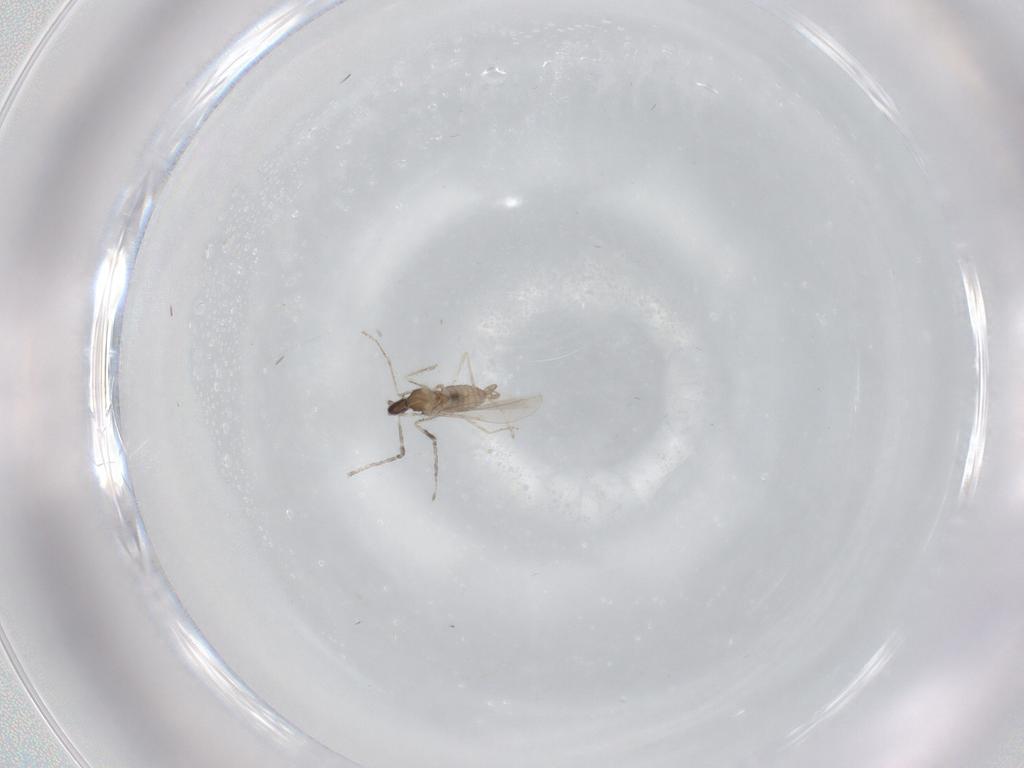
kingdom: Animalia
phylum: Arthropoda
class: Insecta
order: Diptera
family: Cecidomyiidae
